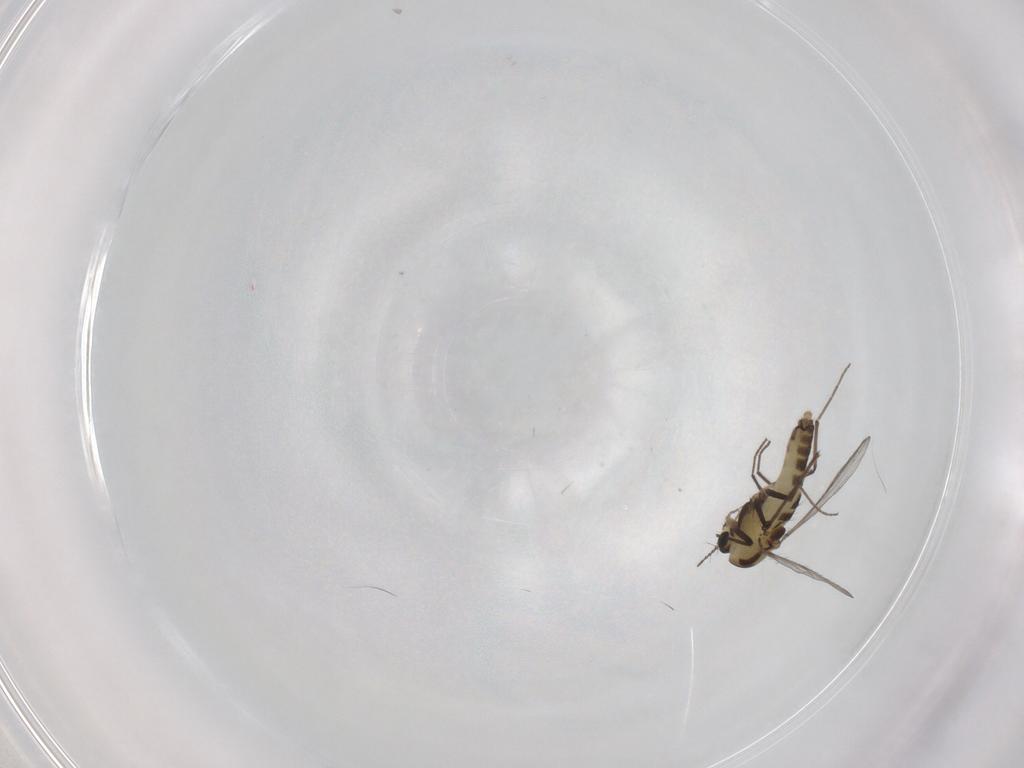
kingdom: Animalia
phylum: Arthropoda
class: Insecta
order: Diptera
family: Chironomidae
